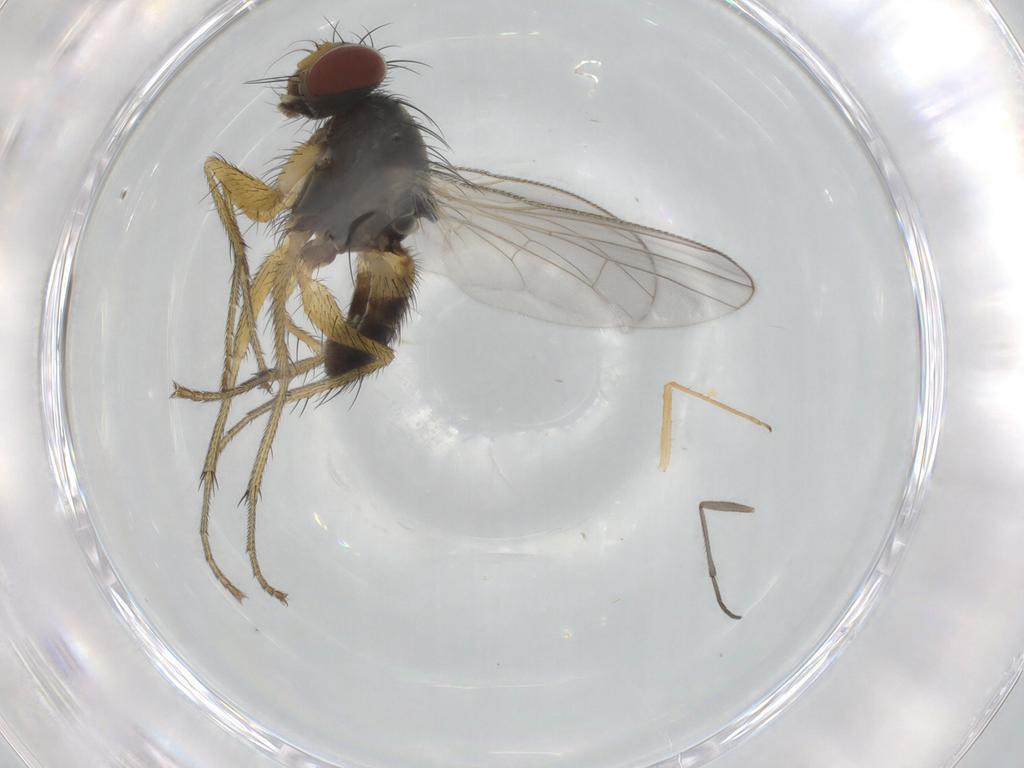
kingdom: Animalia
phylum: Arthropoda
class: Insecta
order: Diptera
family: Muscidae
